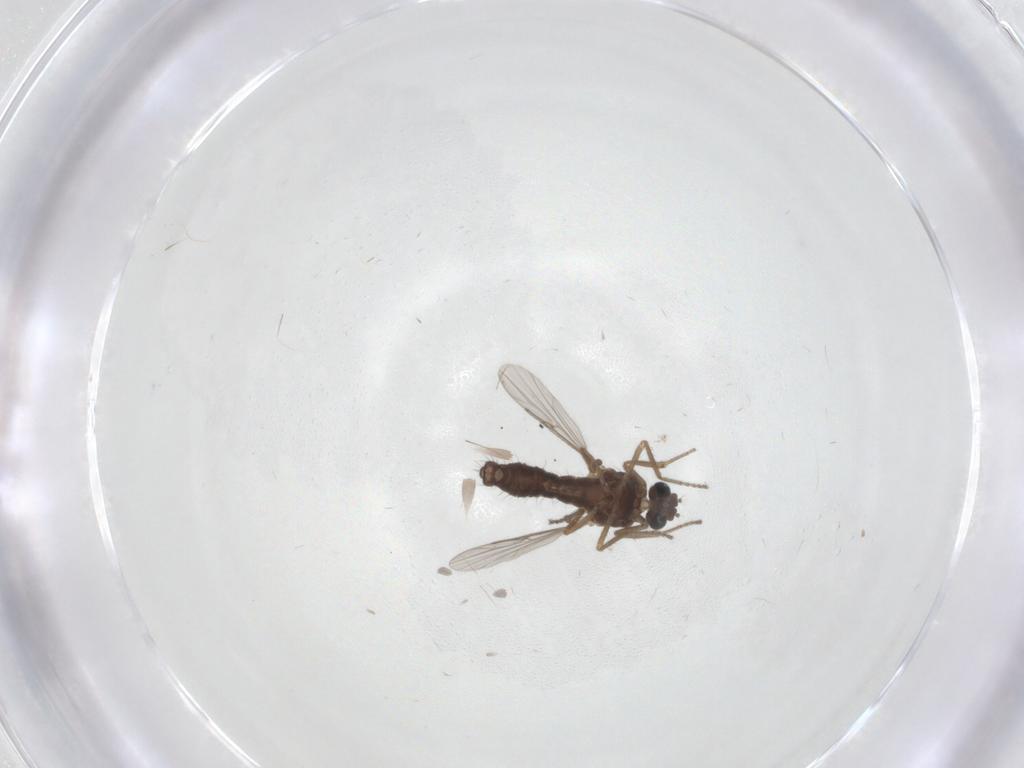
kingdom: Animalia
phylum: Arthropoda
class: Insecta
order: Diptera
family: Ceratopogonidae
